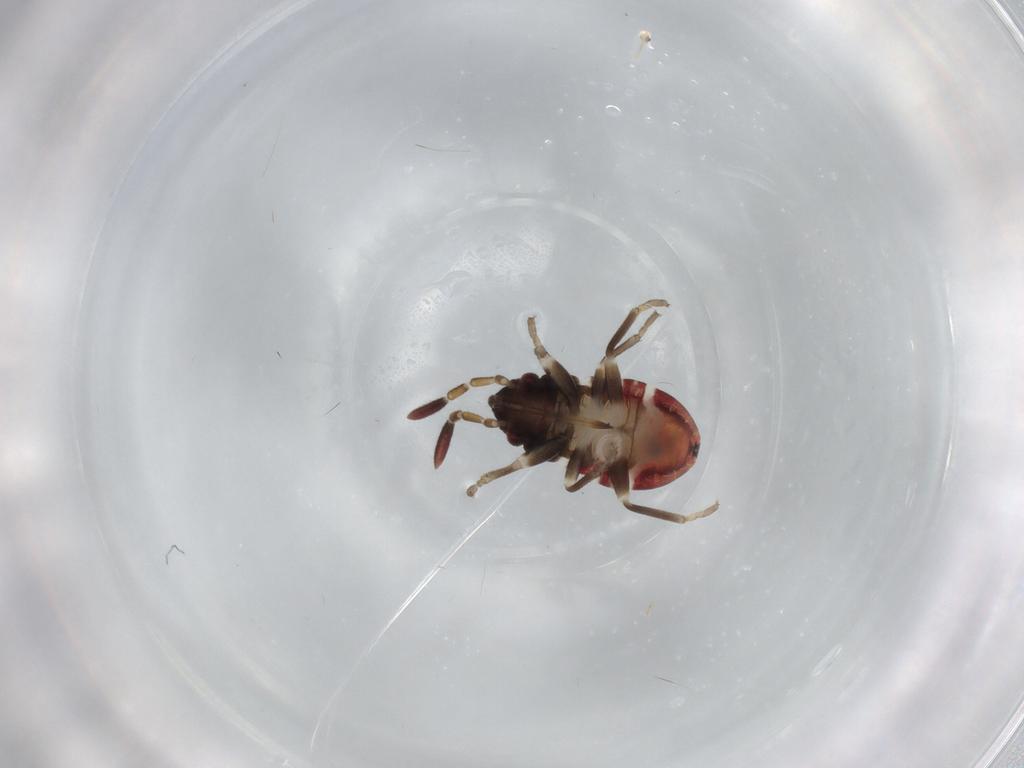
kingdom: Animalia
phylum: Arthropoda
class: Insecta
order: Hemiptera
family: Rhyparochromidae
